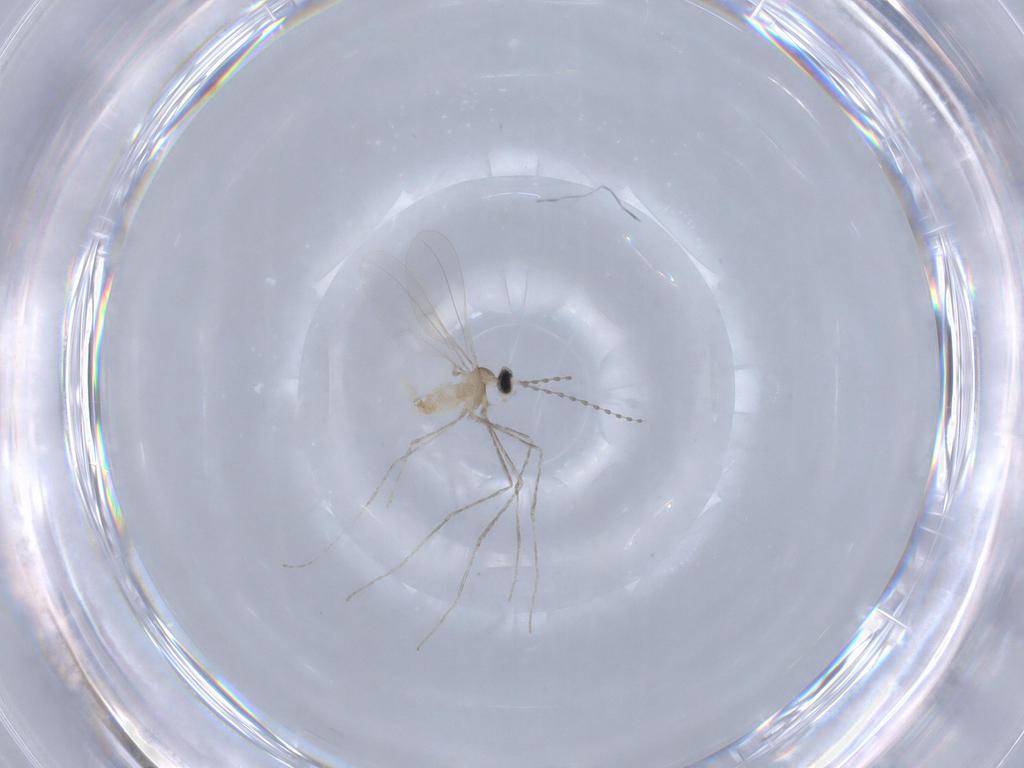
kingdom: Animalia
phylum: Arthropoda
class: Insecta
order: Diptera
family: Cecidomyiidae
